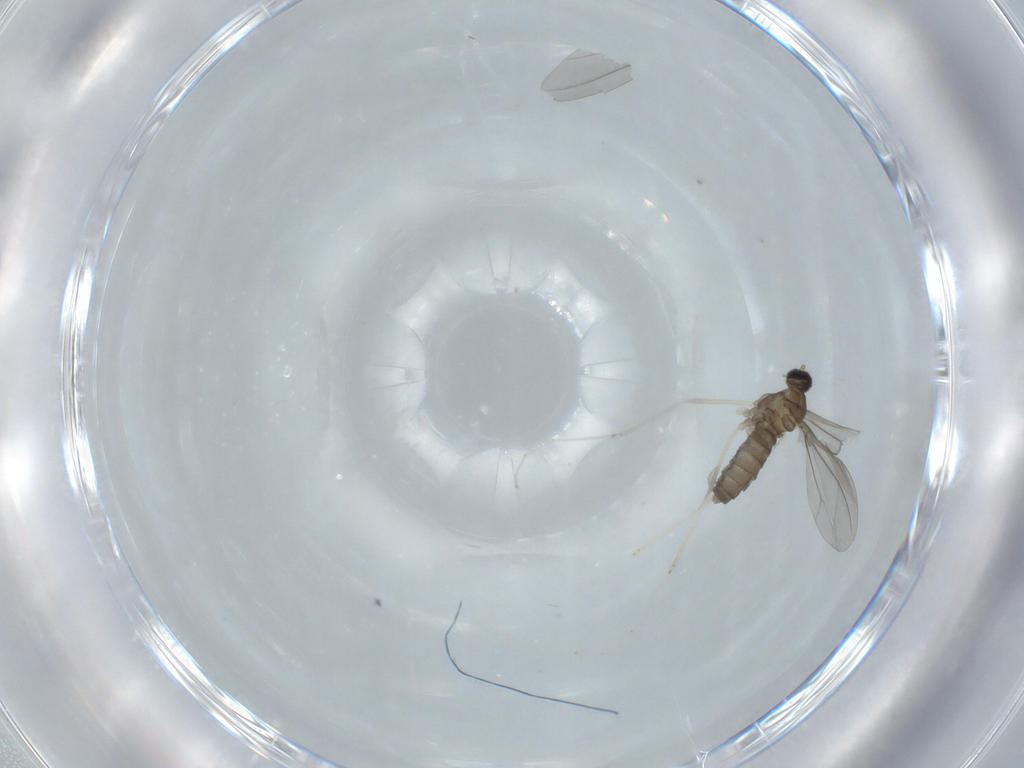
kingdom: Animalia
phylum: Arthropoda
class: Insecta
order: Diptera
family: Cecidomyiidae
